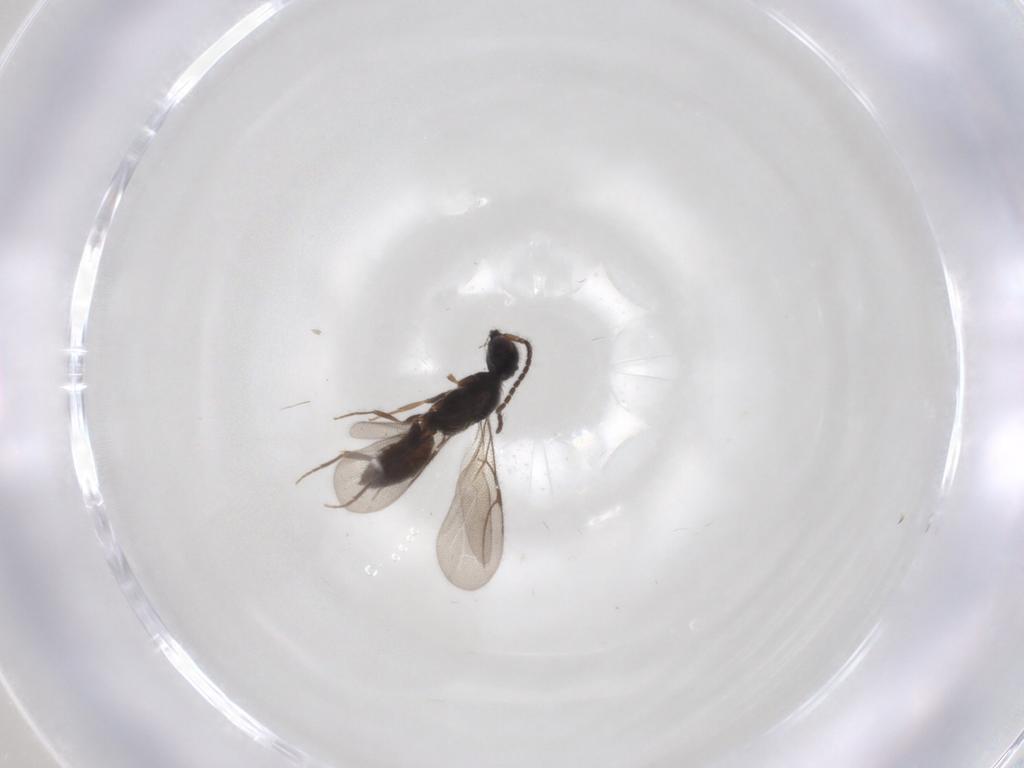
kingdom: Animalia
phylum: Arthropoda
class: Insecta
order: Hymenoptera
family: Bethylidae
